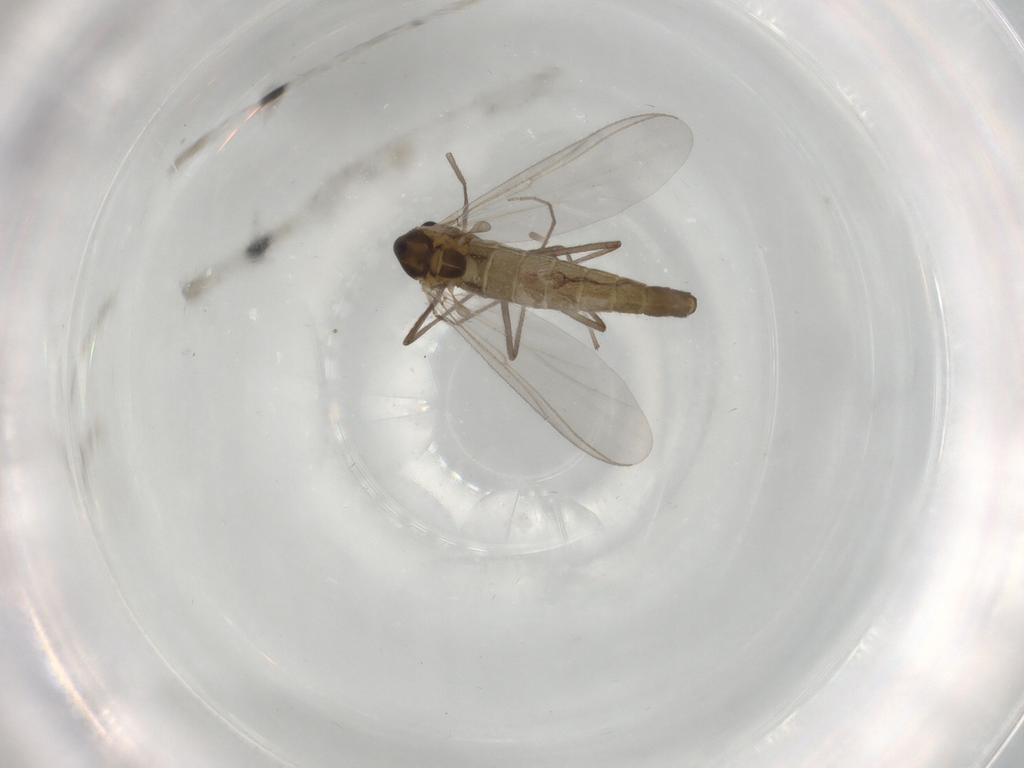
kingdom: Animalia
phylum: Arthropoda
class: Insecta
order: Diptera
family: Chironomidae
